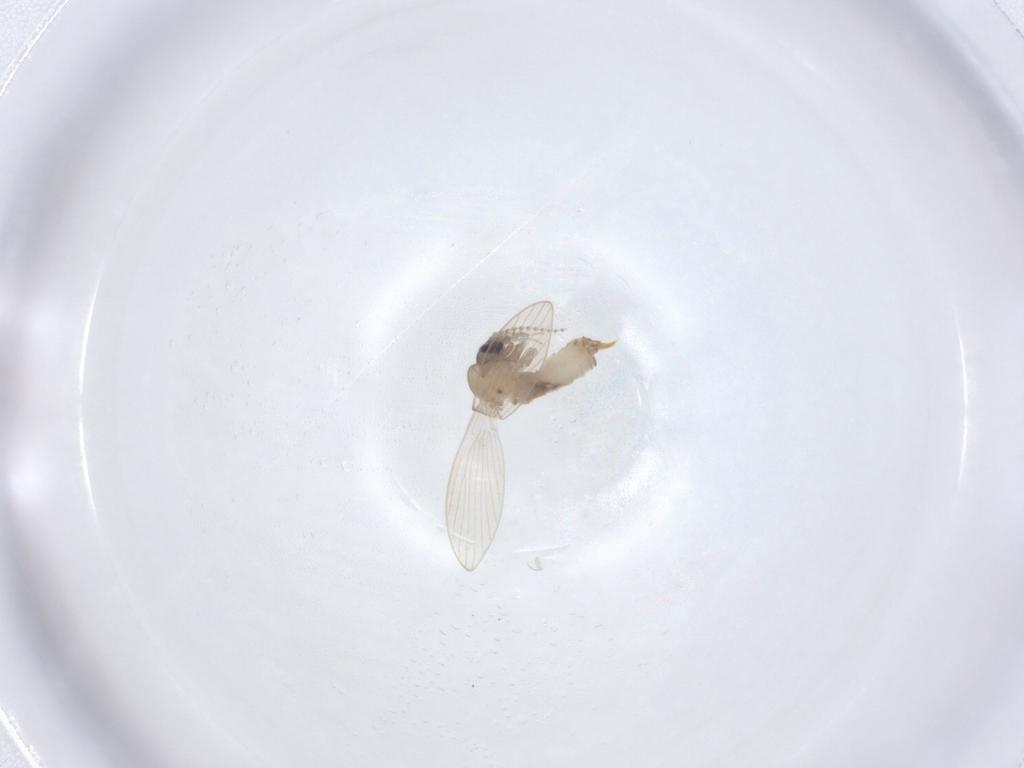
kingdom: Animalia
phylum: Arthropoda
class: Insecta
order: Diptera
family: Psychodidae
